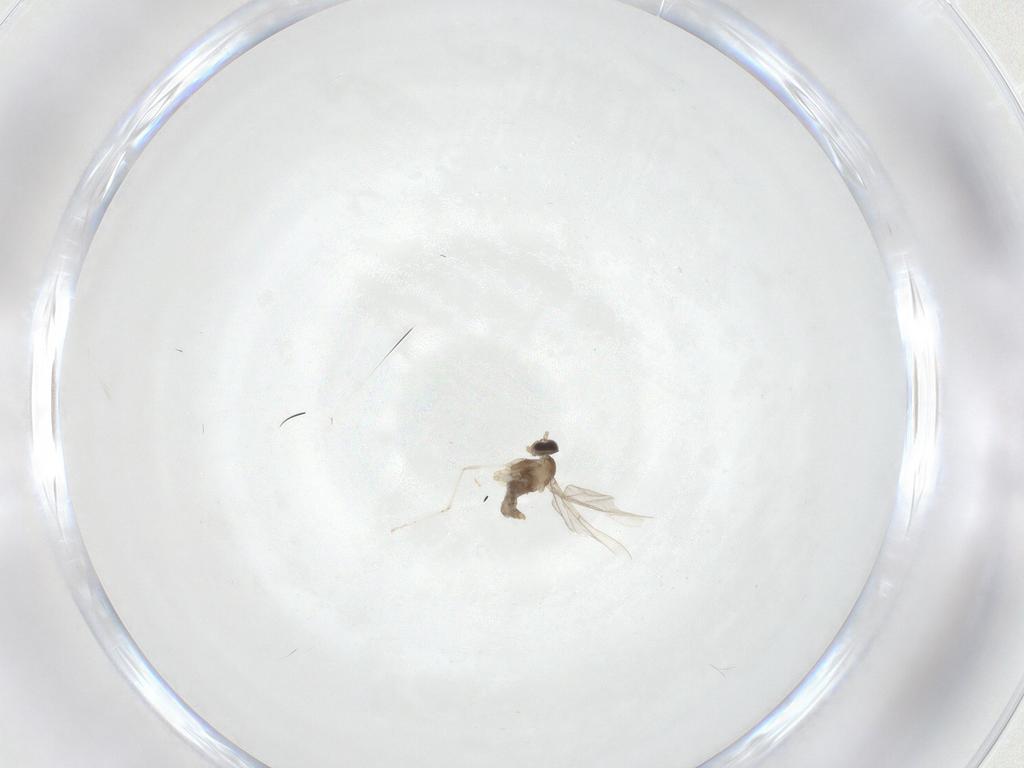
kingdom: Animalia
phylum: Arthropoda
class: Insecta
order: Diptera
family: Cecidomyiidae
